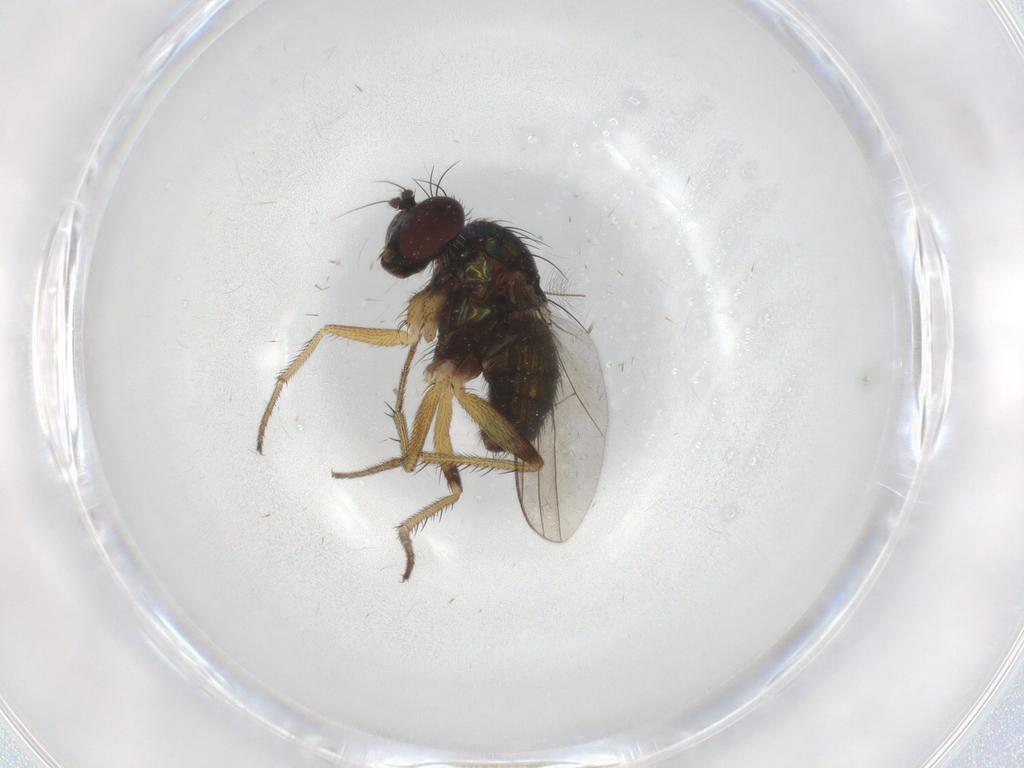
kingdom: Animalia
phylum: Arthropoda
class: Insecta
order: Diptera
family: Dolichopodidae
